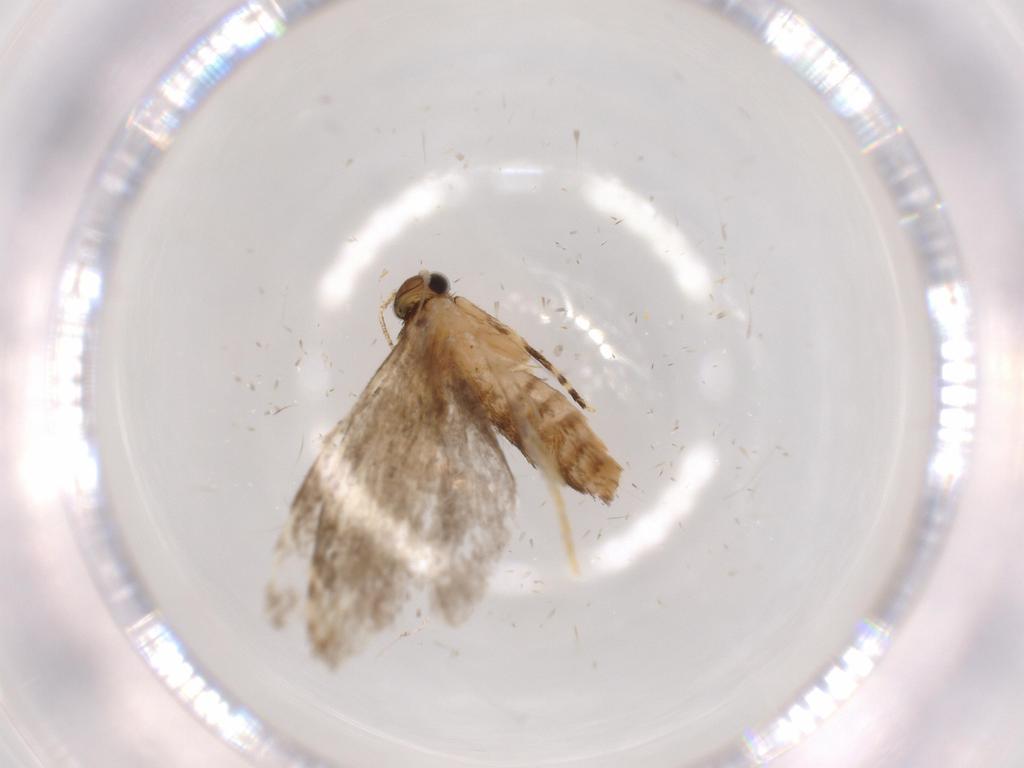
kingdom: Animalia
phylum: Arthropoda
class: Insecta
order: Lepidoptera
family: Tineidae
